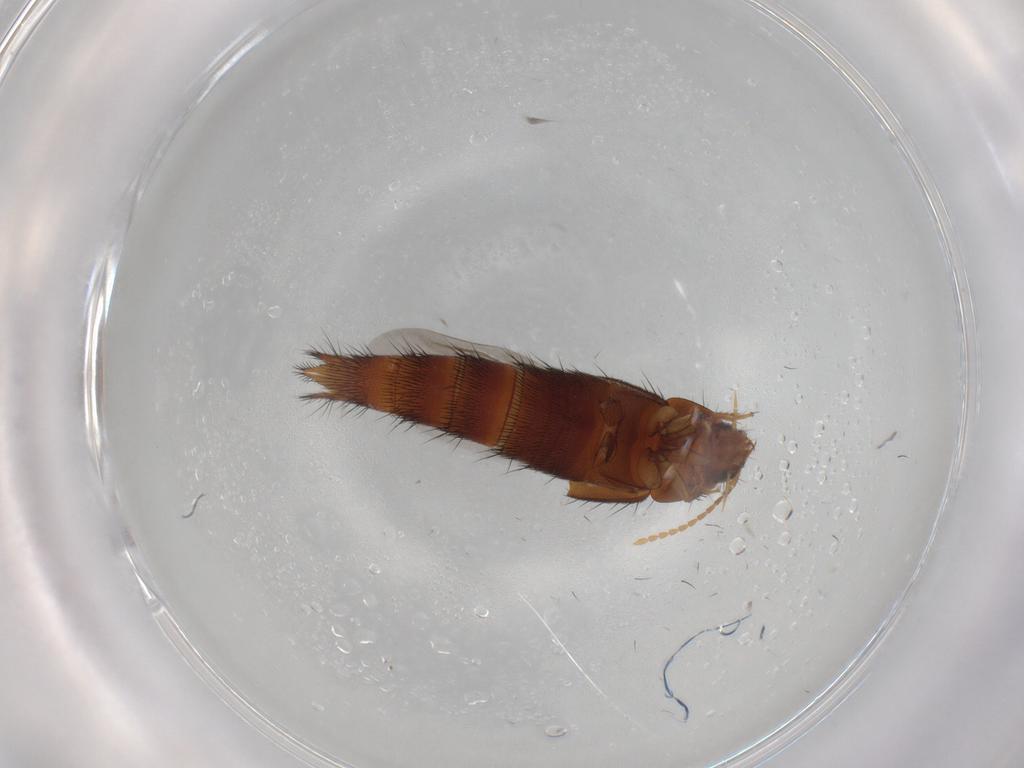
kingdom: Animalia
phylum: Arthropoda
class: Insecta
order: Coleoptera
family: Staphylinidae
